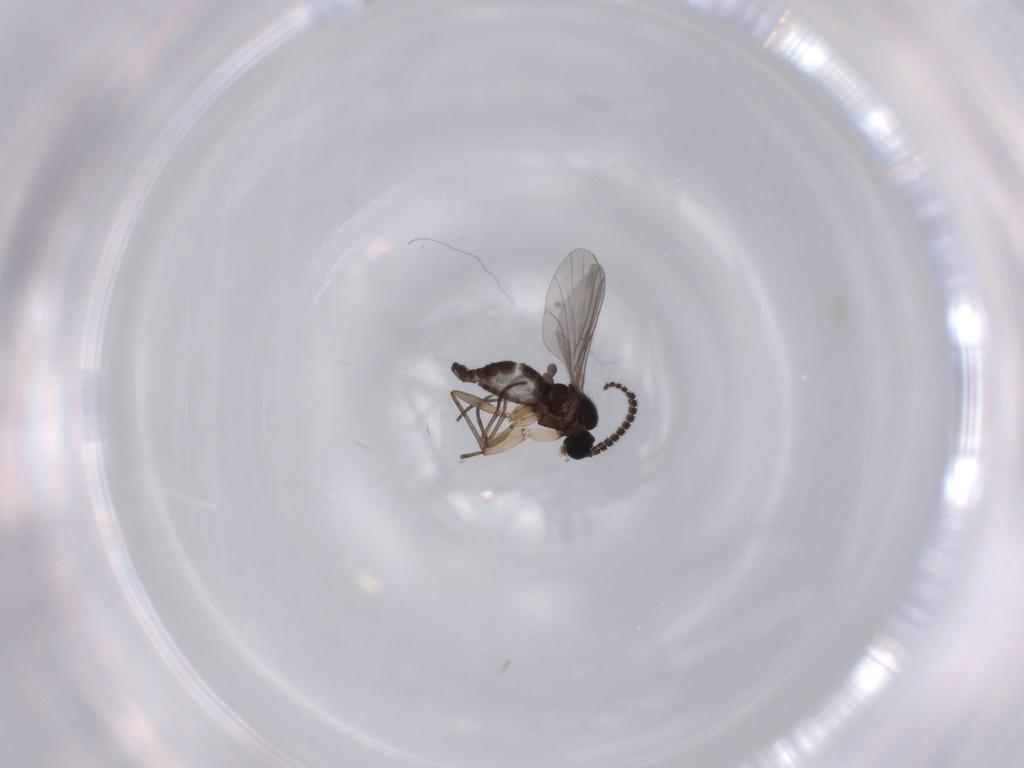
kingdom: Animalia
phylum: Arthropoda
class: Insecta
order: Diptera
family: Sciaridae
